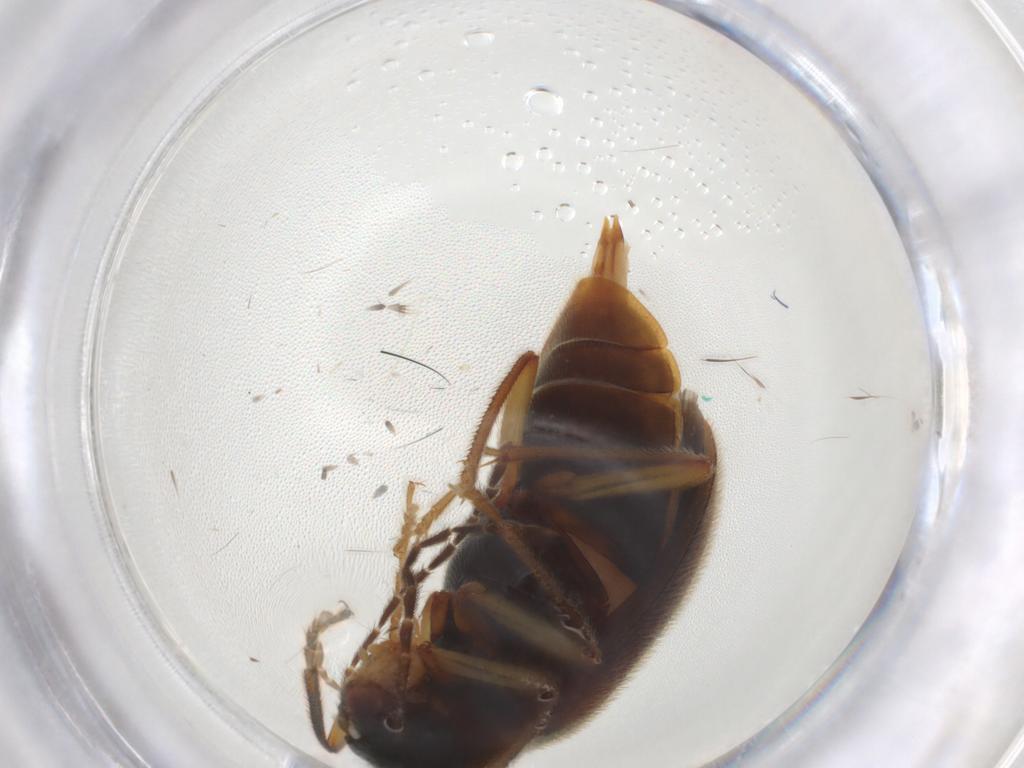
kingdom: Animalia
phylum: Arthropoda
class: Insecta
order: Coleoptera
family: Ptilodactylidae
